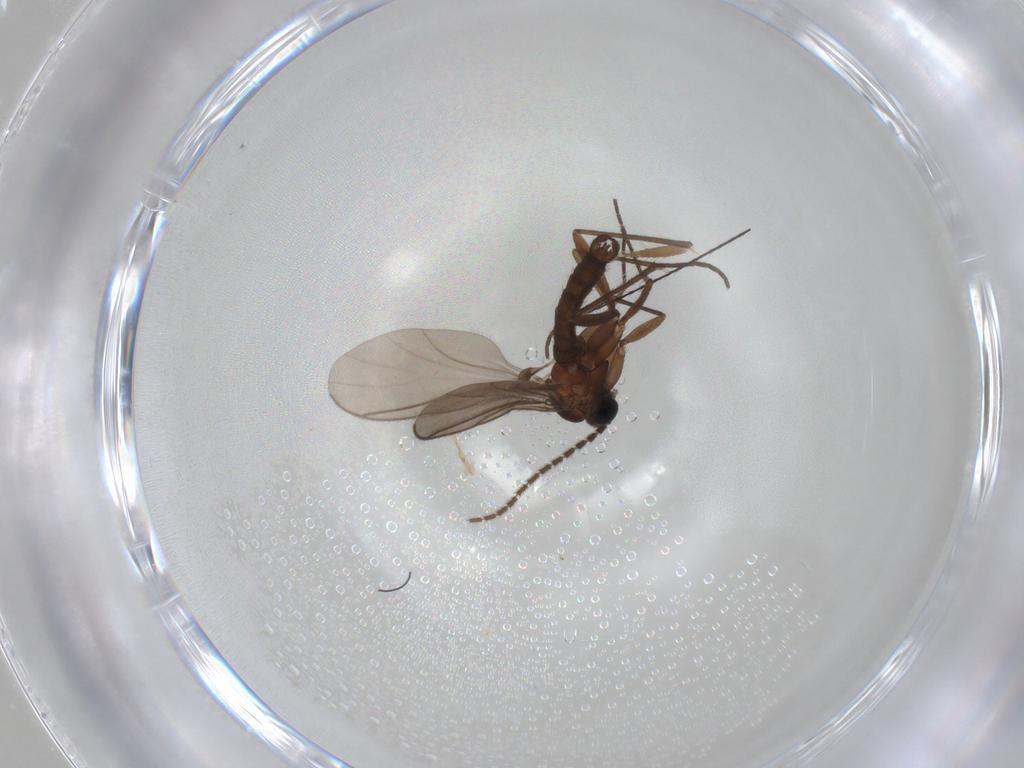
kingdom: Animalia
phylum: Arthropoda
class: Insecta
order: Diptera
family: Sciaridae
